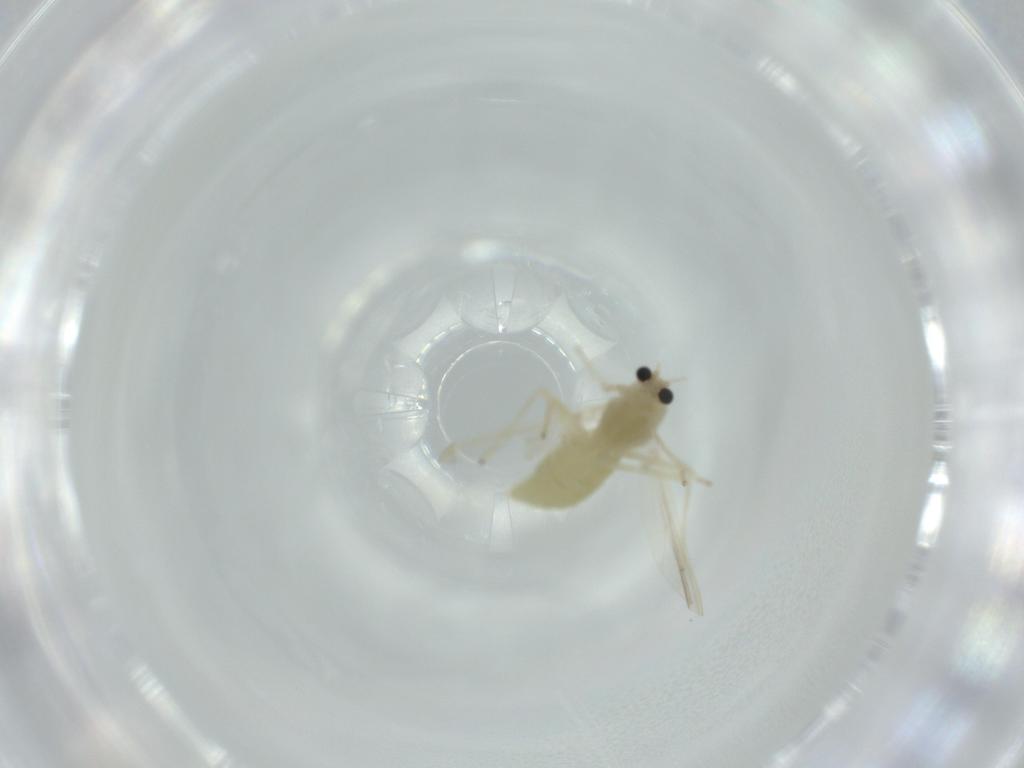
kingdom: Animalia
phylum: Arthropoda
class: Insecta
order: Diptera
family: Chironomidae
